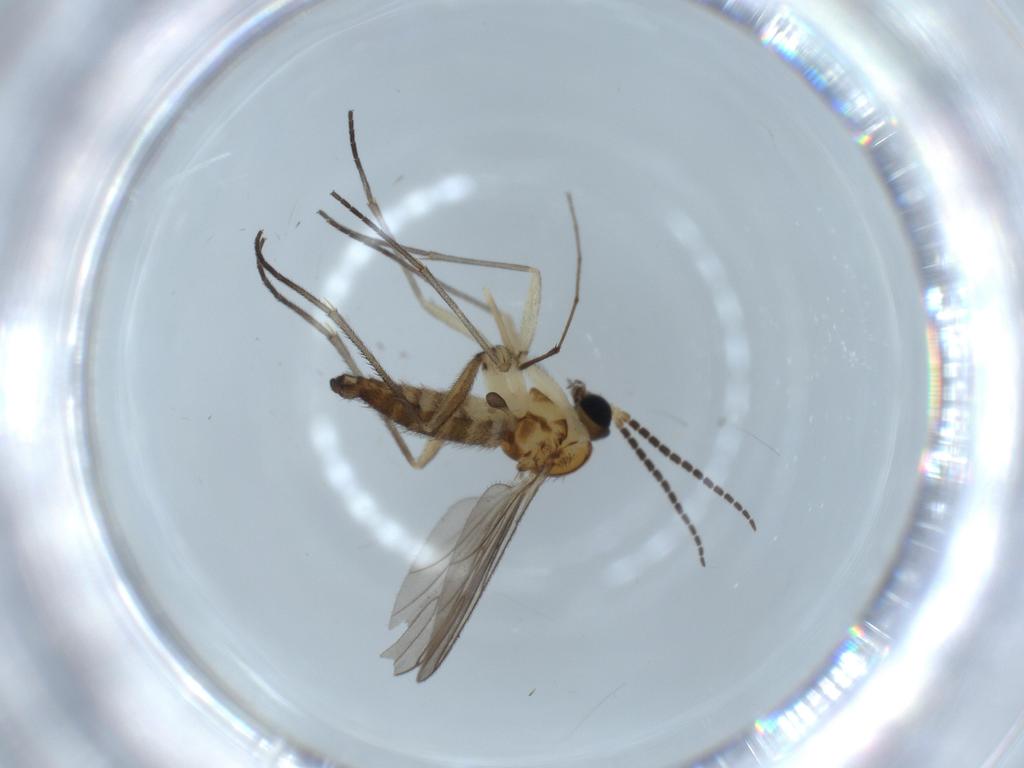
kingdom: Animalia
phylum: Arthropoda
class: Insecta
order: Diptera
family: Sciaridae
